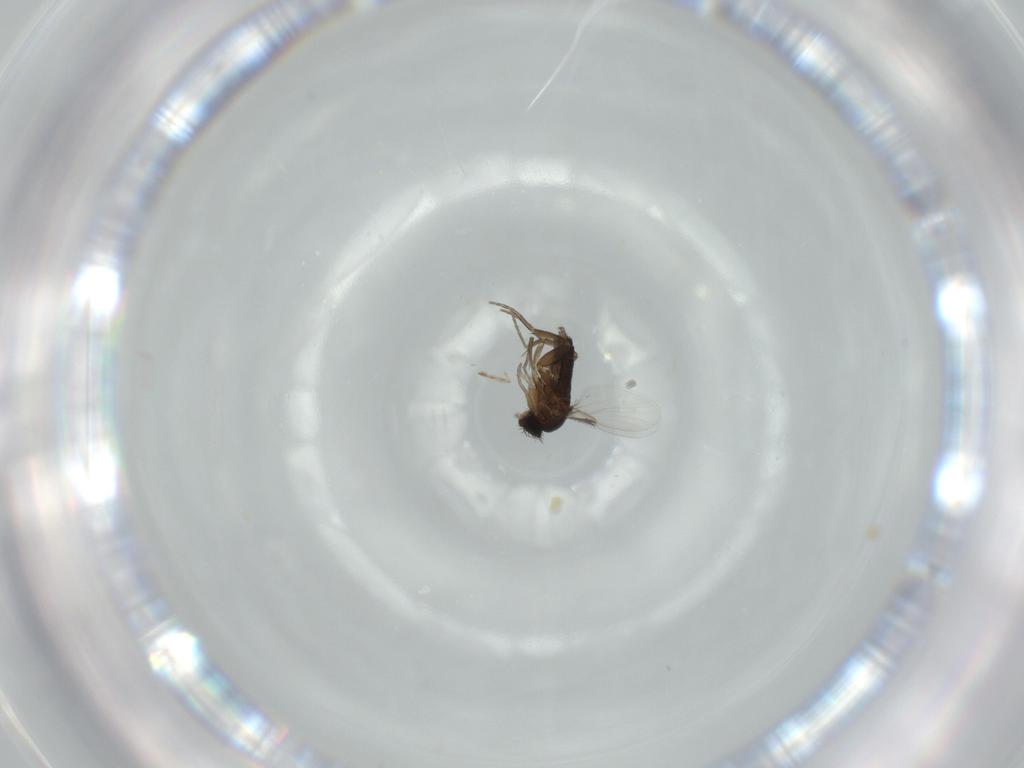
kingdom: Animalia
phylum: Arthropoda
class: Insecta
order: Diptera
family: Phoridae
